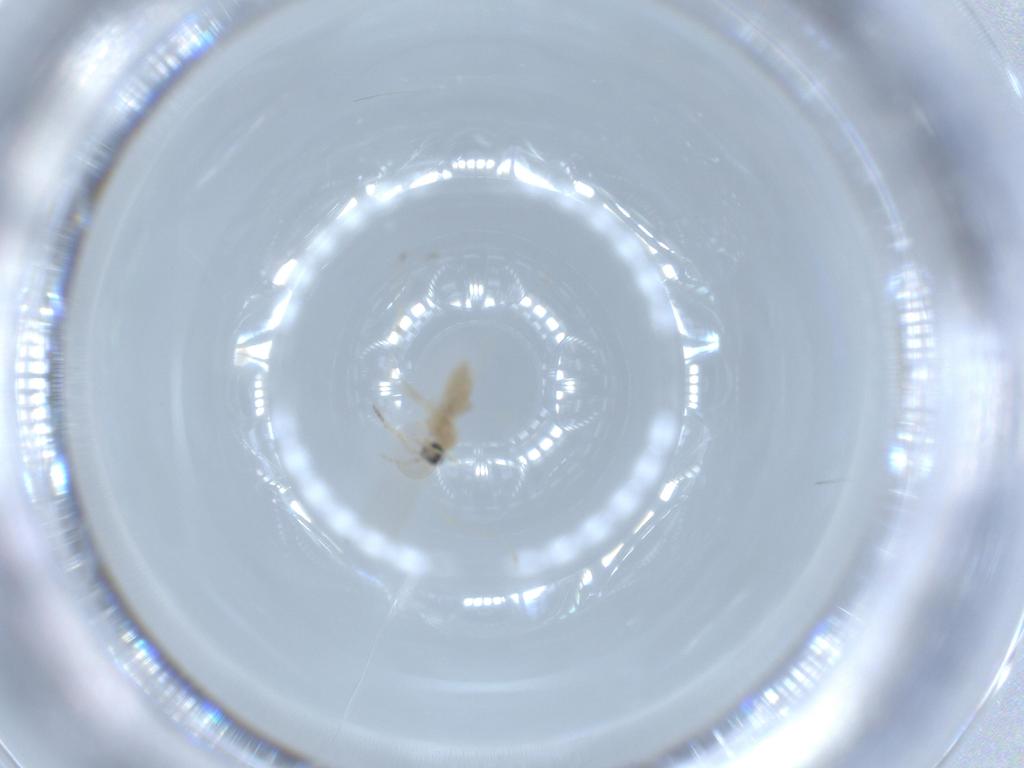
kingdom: Animalia
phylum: Arthropoda
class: Insecta
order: Diptera
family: Cecidomyiidae
